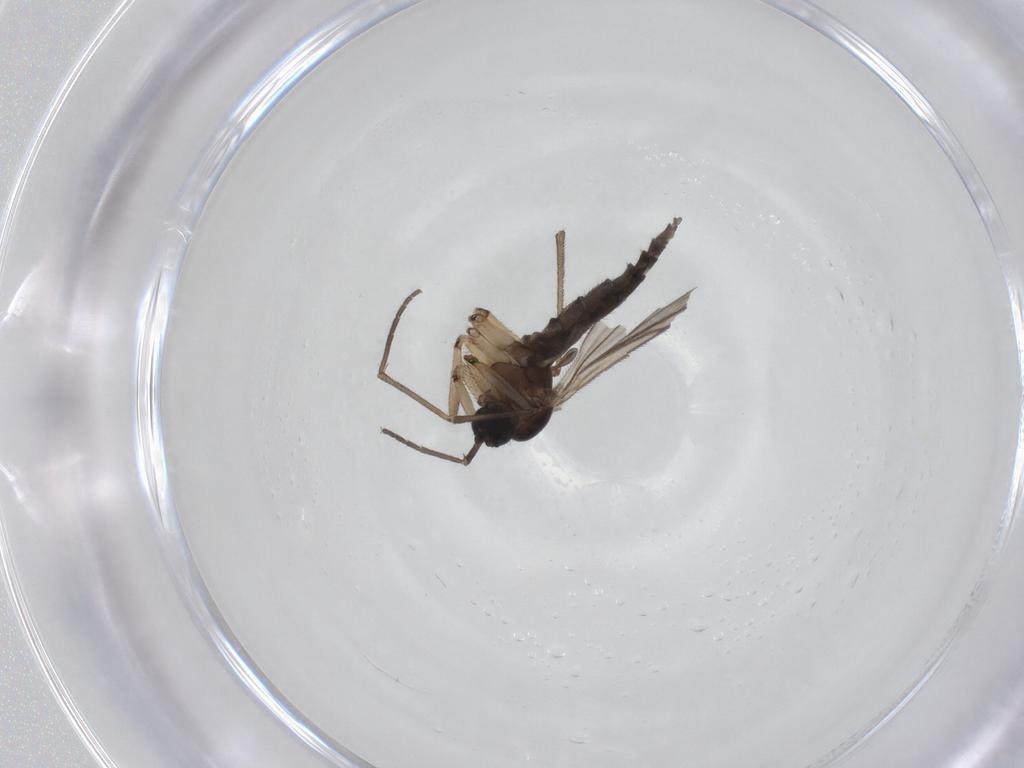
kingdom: Animalia
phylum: Arthropoda
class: Insecta
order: Diptera
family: Sciaridae
